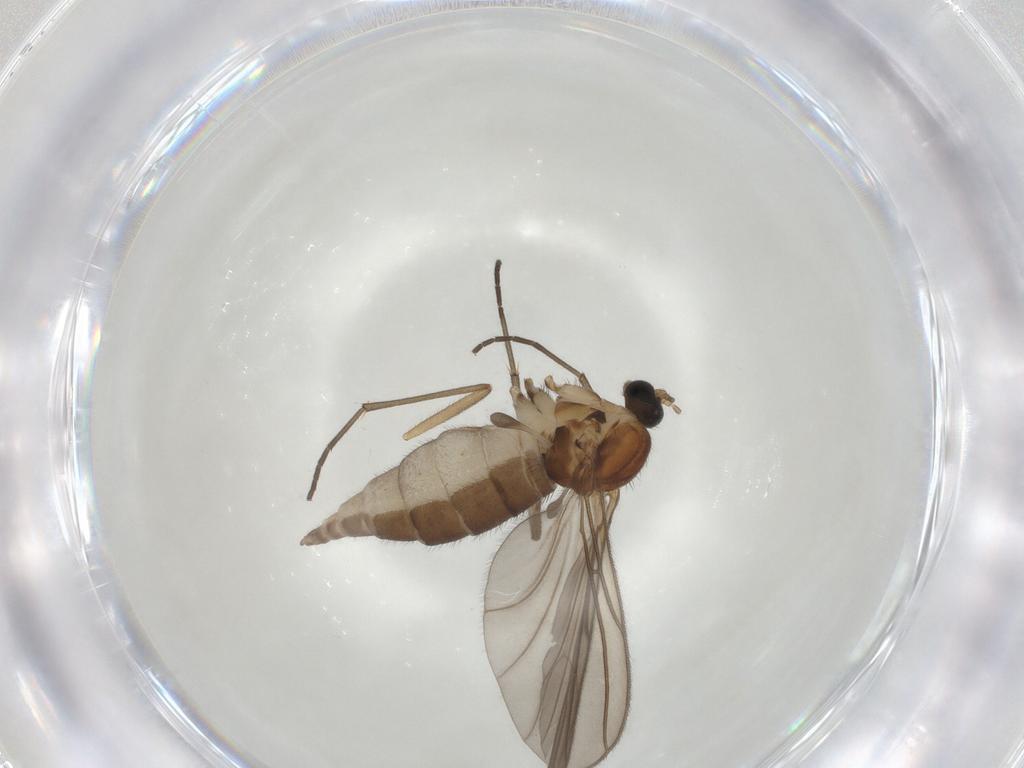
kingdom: Animalia
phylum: Arthropoda
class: Insecta
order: Diptera
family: Sciaridae
